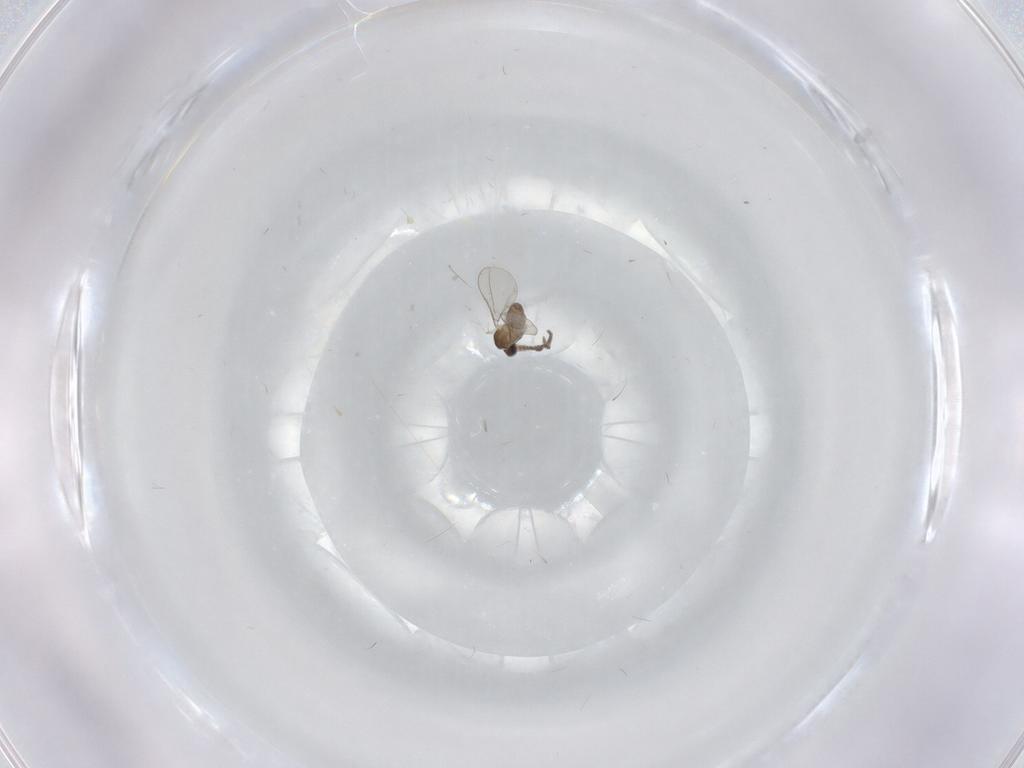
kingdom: Animalia
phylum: Arthropoda
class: Insecta
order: Diptera
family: Cecidomyiidae
